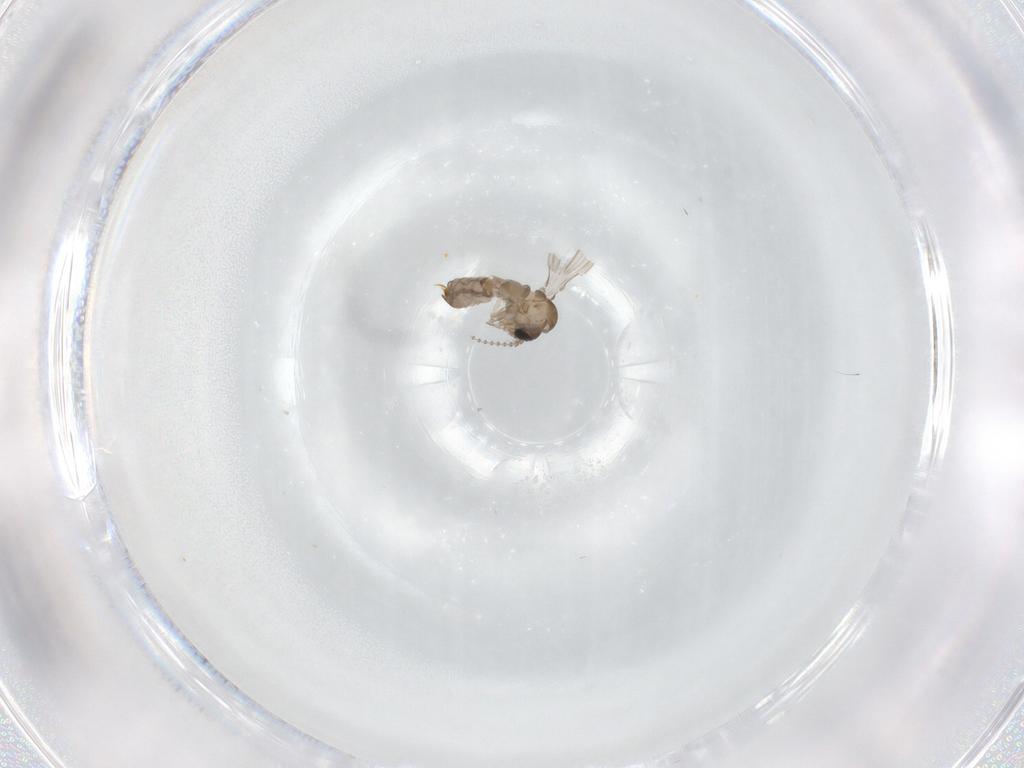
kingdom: Animalia
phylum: Arthropoda
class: Insecta
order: Diptera
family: Psychodidae
